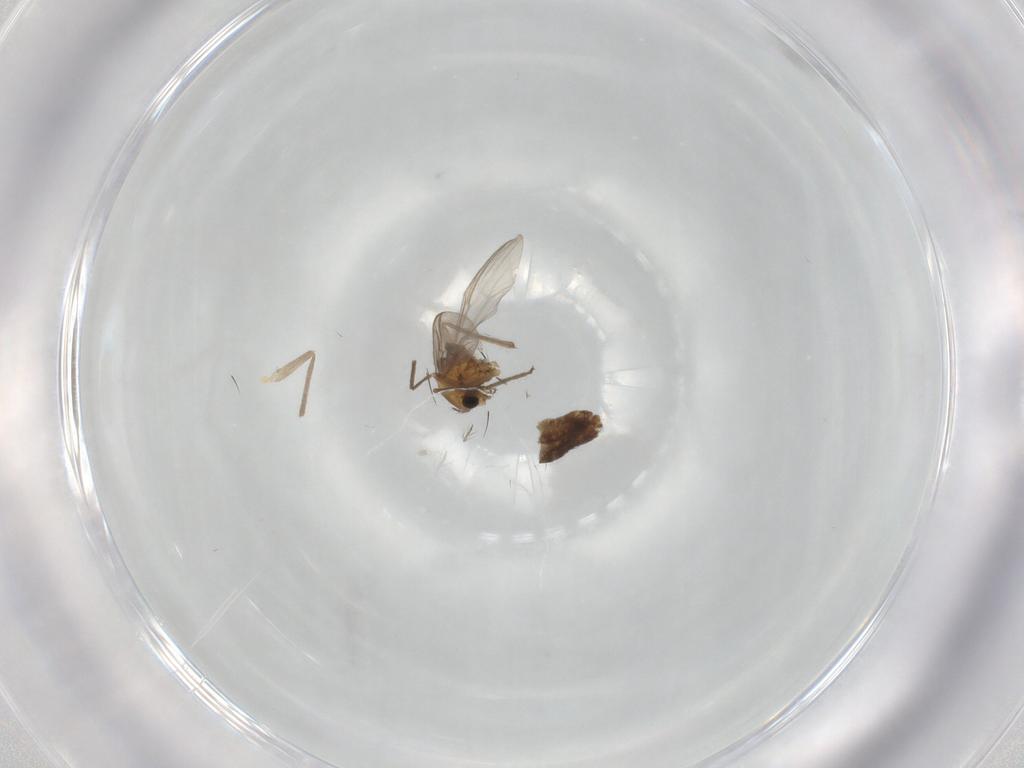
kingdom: Animalia
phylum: Arthropoda
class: Insecta
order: Diptera
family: Chironomidae
